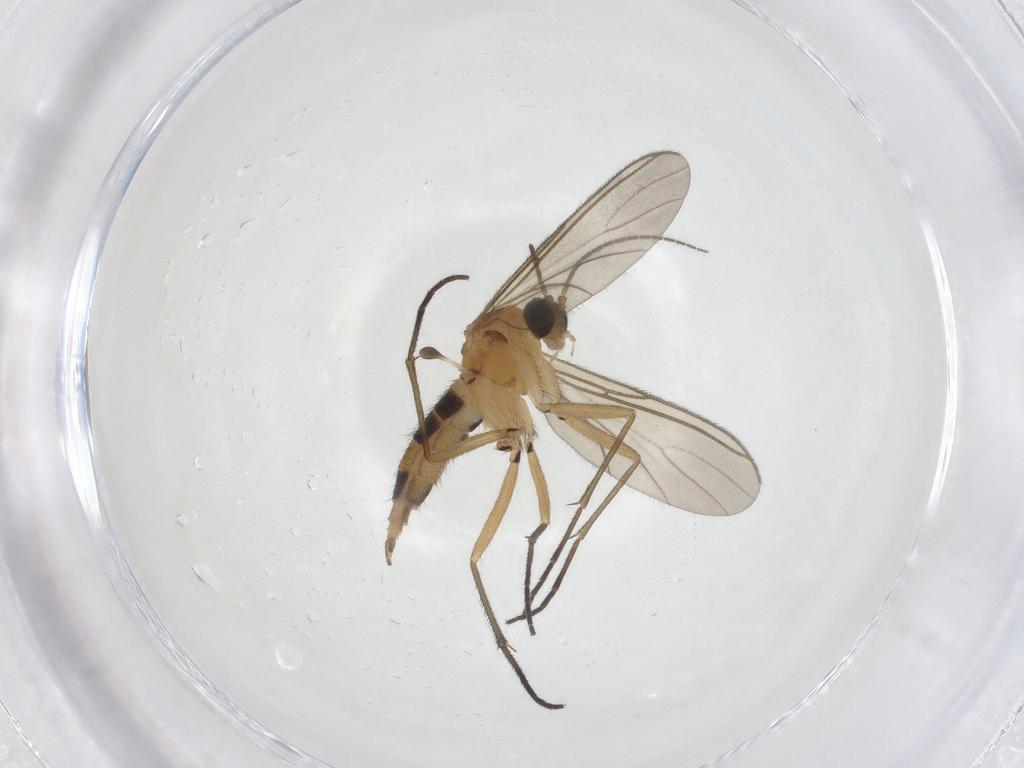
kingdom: Animalia
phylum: Arthropoda
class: Insecta
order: Diptera
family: Sciaridae
